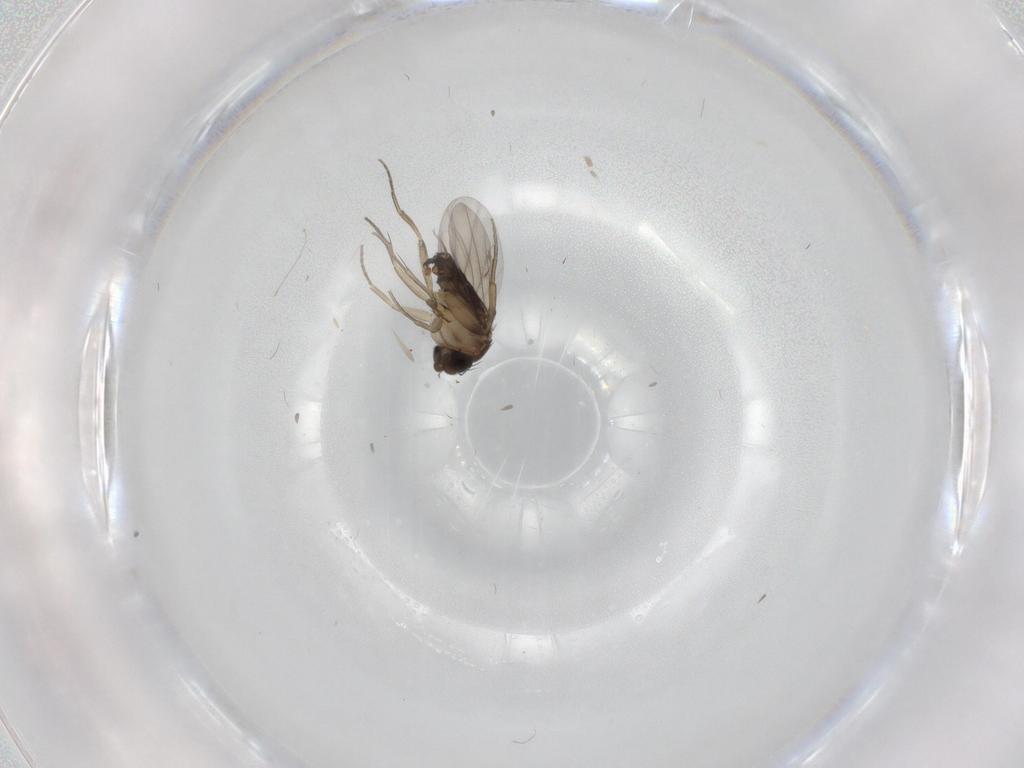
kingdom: Animalia
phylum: Arthropoda
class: Insecta
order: Diptera
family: Phoridae
